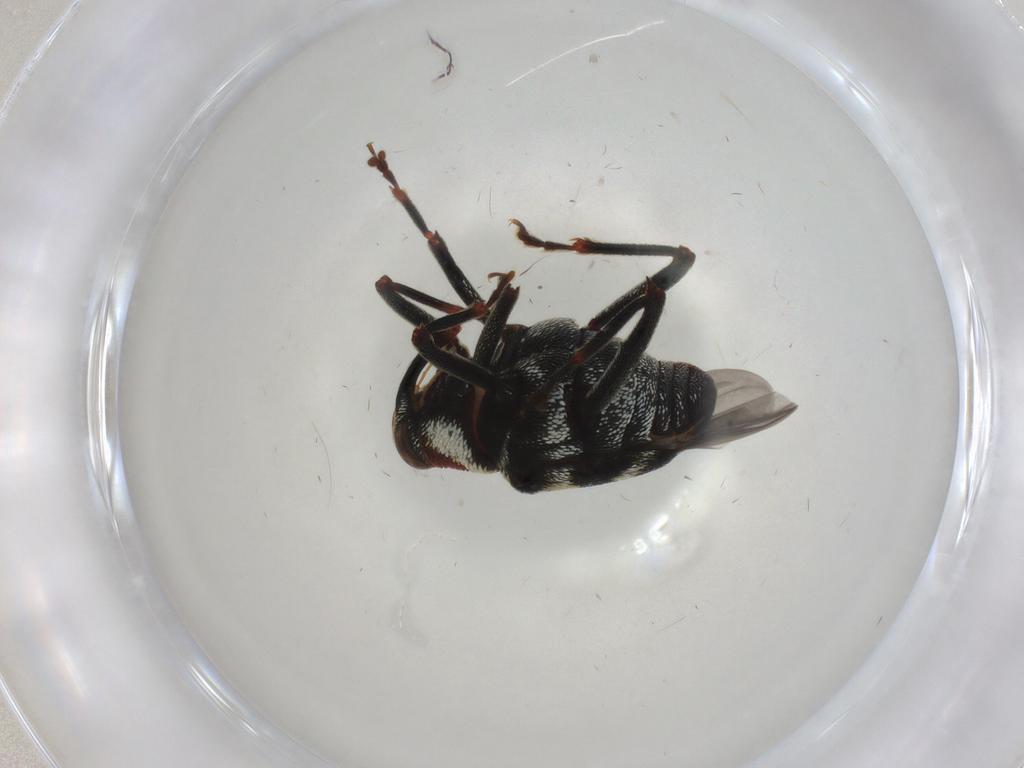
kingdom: Animalia
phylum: Arthropoda
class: Insecta
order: Coleoptera
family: Curculionidae
